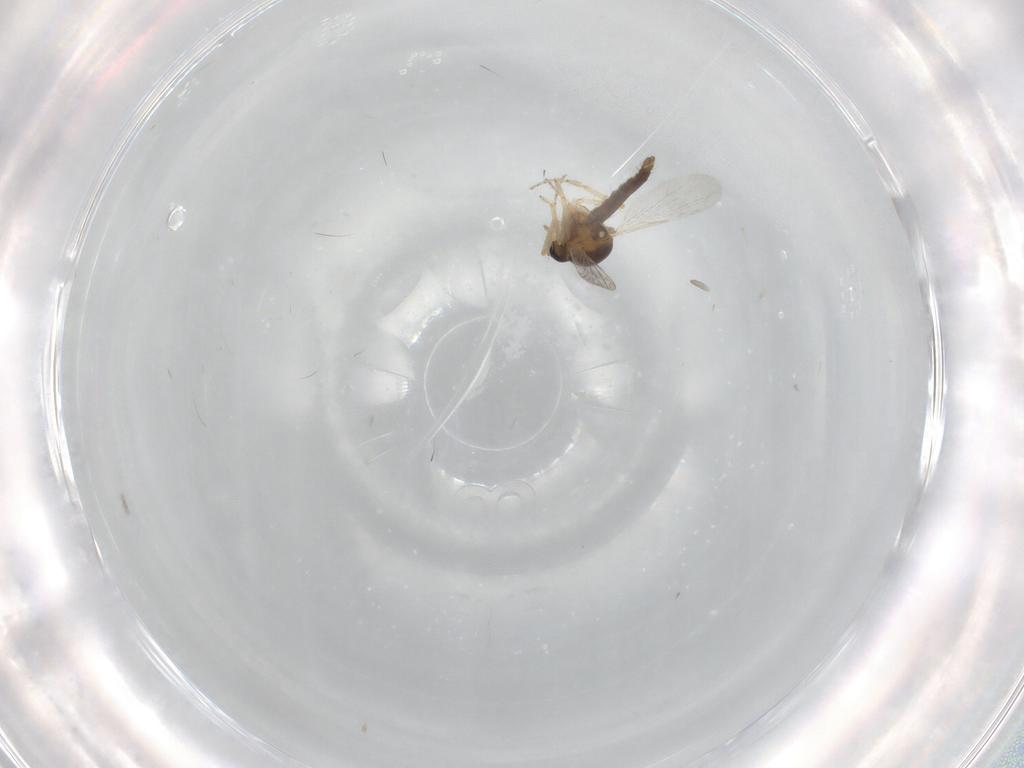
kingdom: Animalia
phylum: Arthropoda
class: Insecta
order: Diptera
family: Ceratopogonidae
